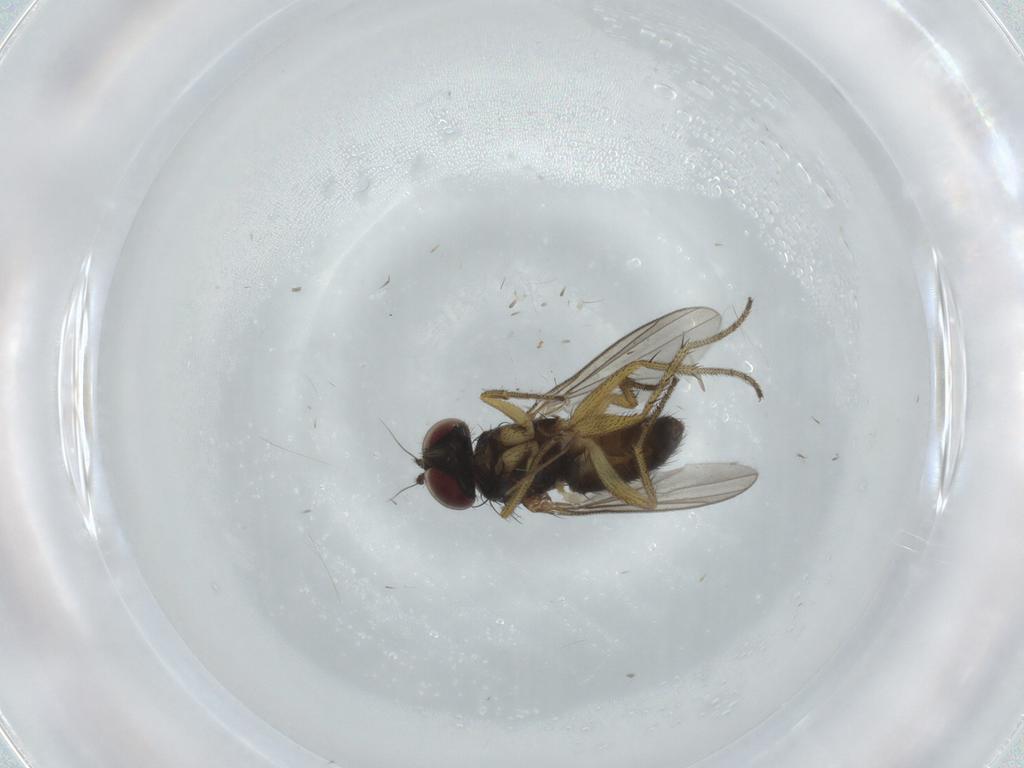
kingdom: Animalia
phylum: Arthropoda
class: Insecta
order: Diptera
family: Dolichopodidae
